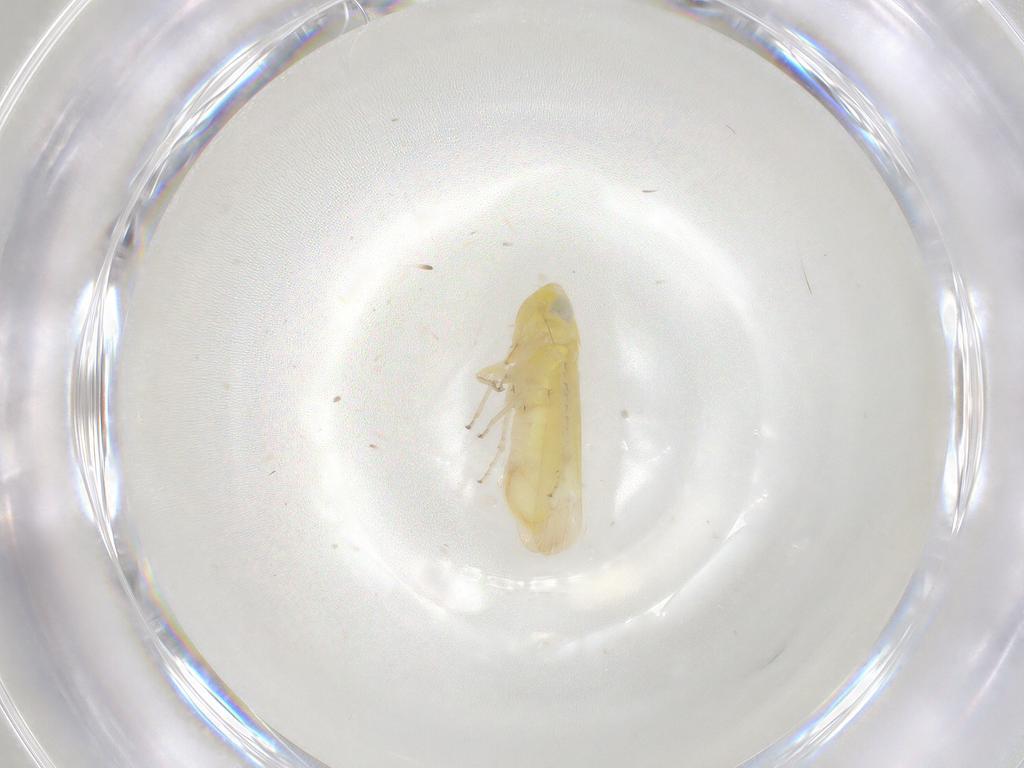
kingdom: Animalia
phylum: Arthropoda
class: Insecta
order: Hemiptera
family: Cicadellidae
